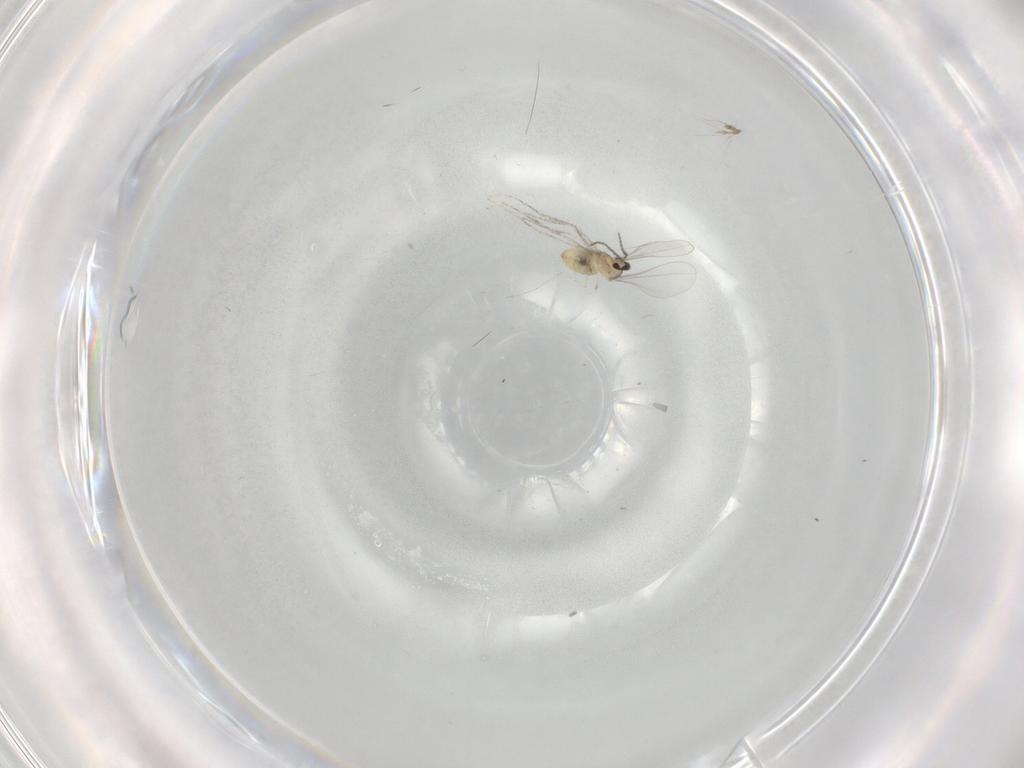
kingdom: Animalia
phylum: Arthropoda
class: Insecta
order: Diptera
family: Cecidomyiidae
